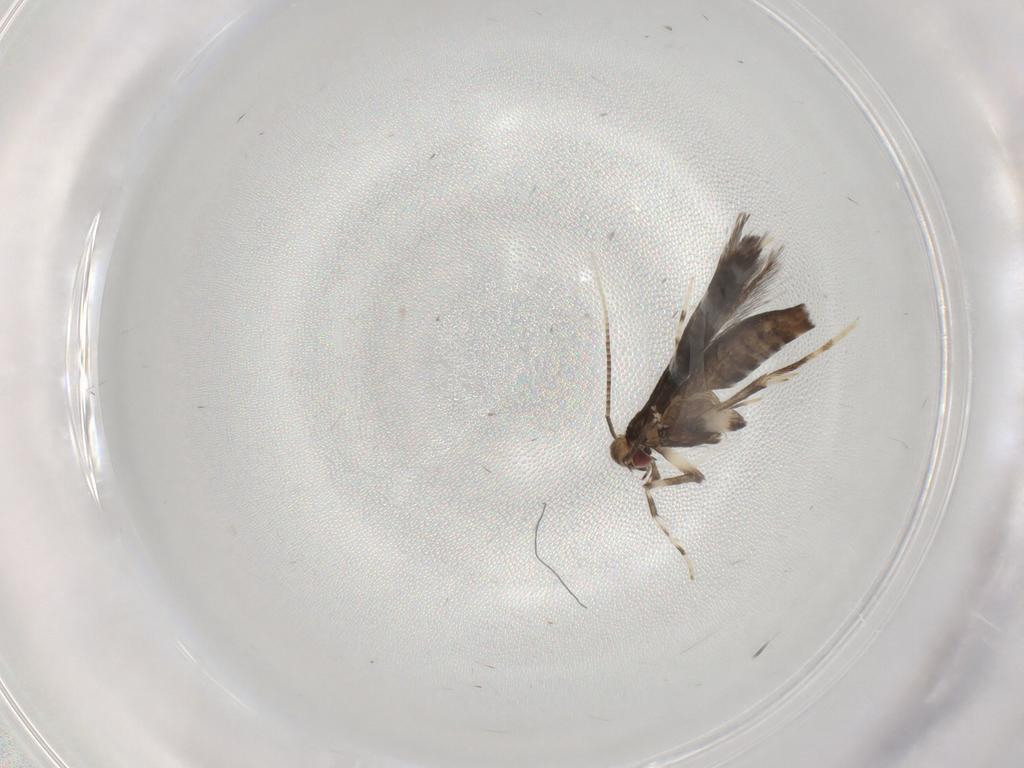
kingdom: Animalia
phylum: Arthropoda
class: Insecta
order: Lepidoptera
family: Gracillariidae
